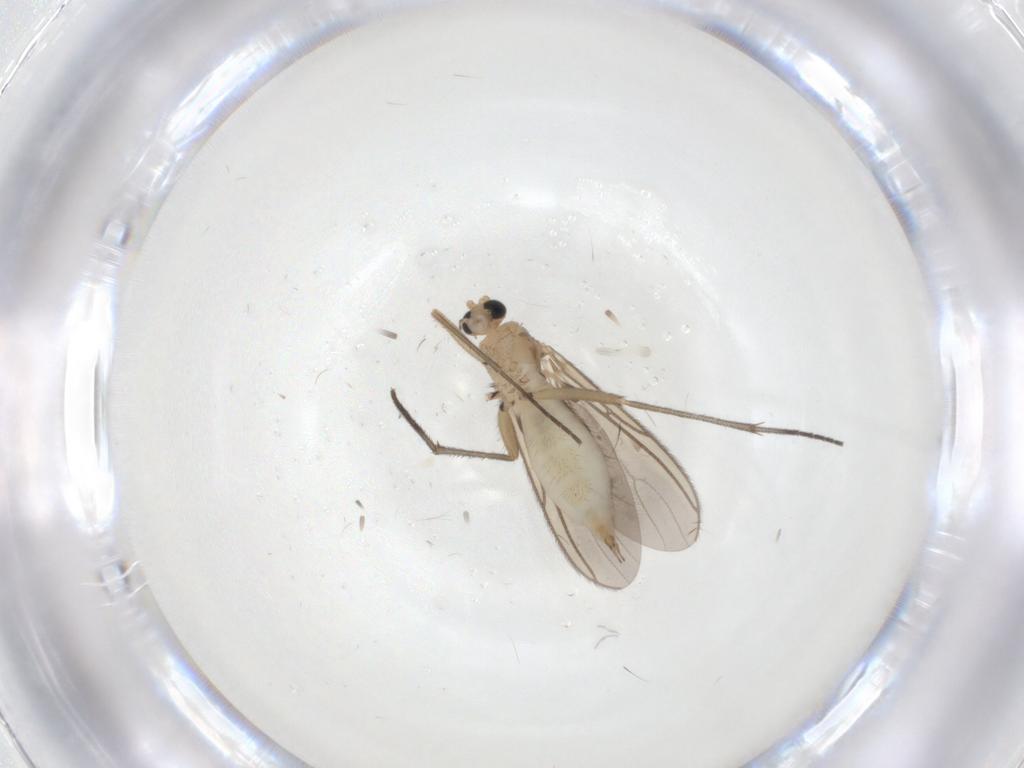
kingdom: Animalia
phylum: Arthropoda
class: Insecta
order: Diptera
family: Sciaridae
